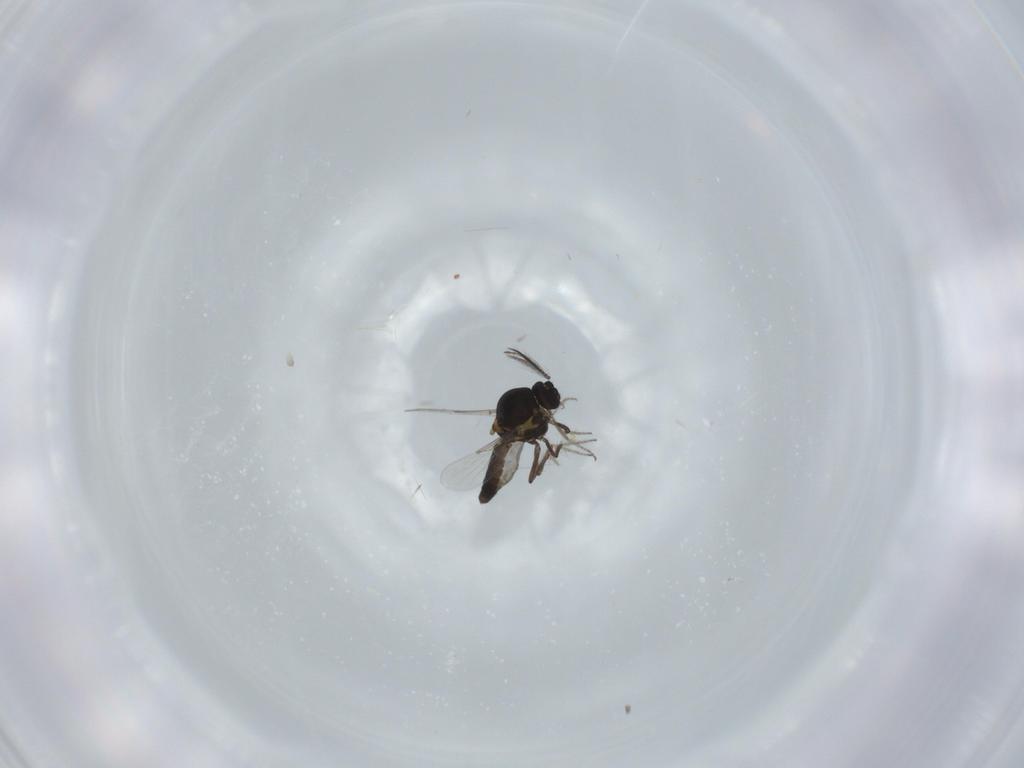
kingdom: Animalia
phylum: Arthropoda
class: Insecta
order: Diptera
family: Ceratopogonidae
